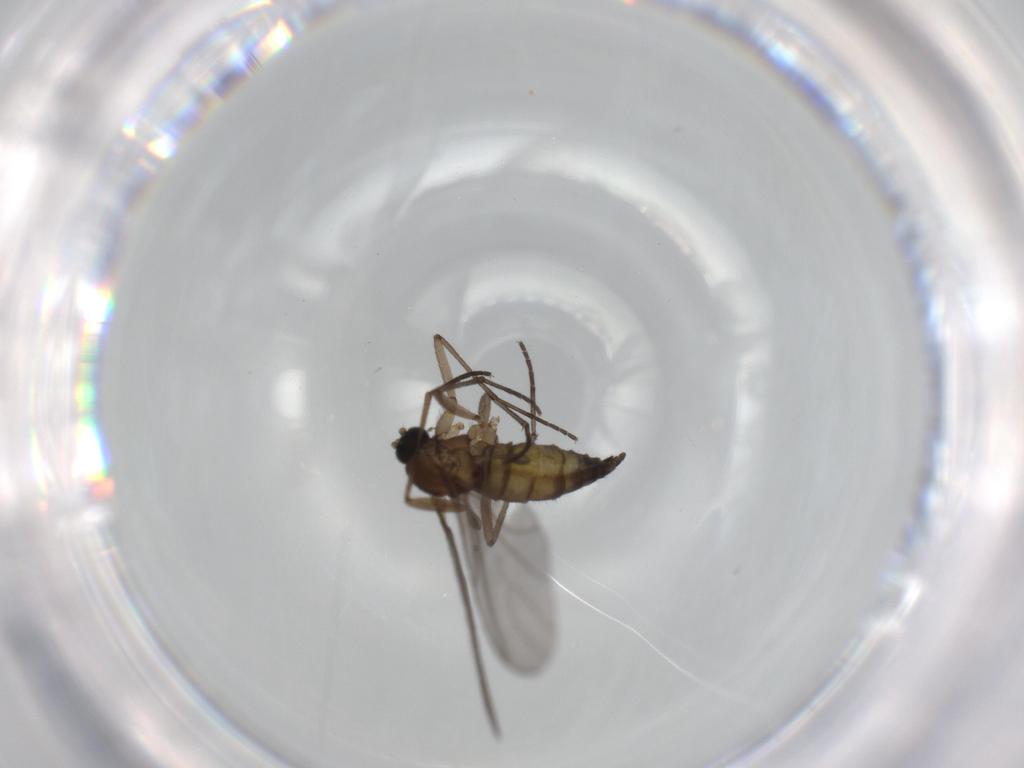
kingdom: Animalia
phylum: Arthropoda
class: Insecta
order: Diptera
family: Sciaridae
